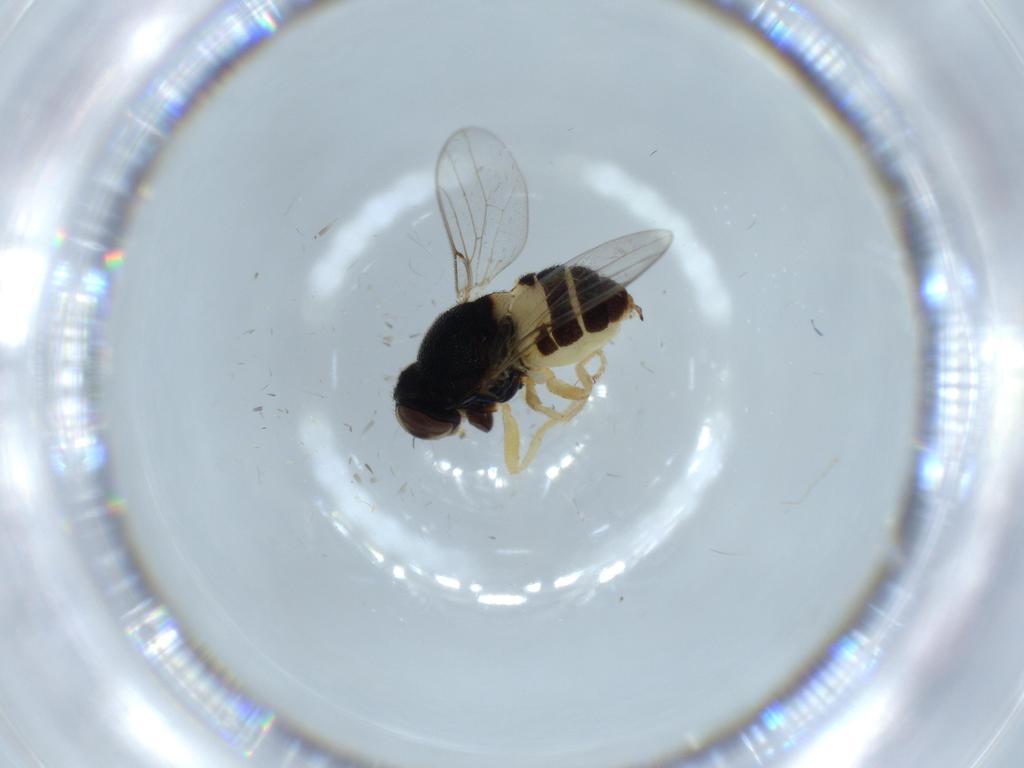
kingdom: Animalia
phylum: Arthropoda
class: Insecta
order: Diptera
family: Chloropidae
